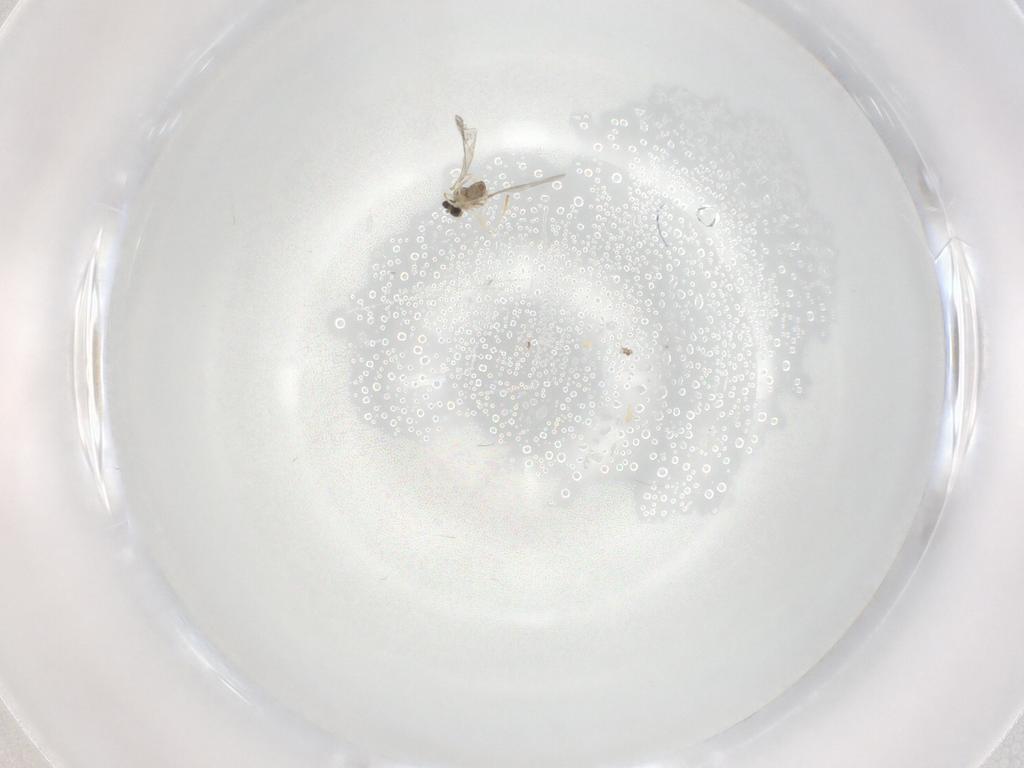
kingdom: Animalia
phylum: Arthropoda
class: Insecta
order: Diptera
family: Cecidomyiidae
